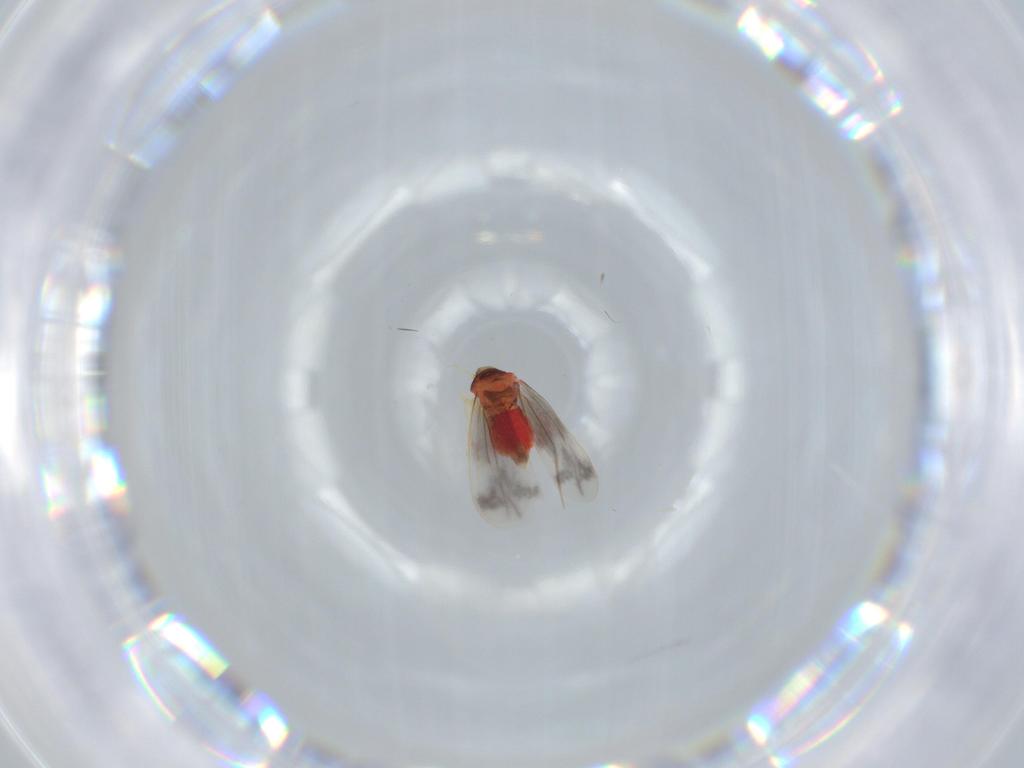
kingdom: Animalia
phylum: Arthropoda
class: Insecta
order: Hemiptera
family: Aleyrodidae
